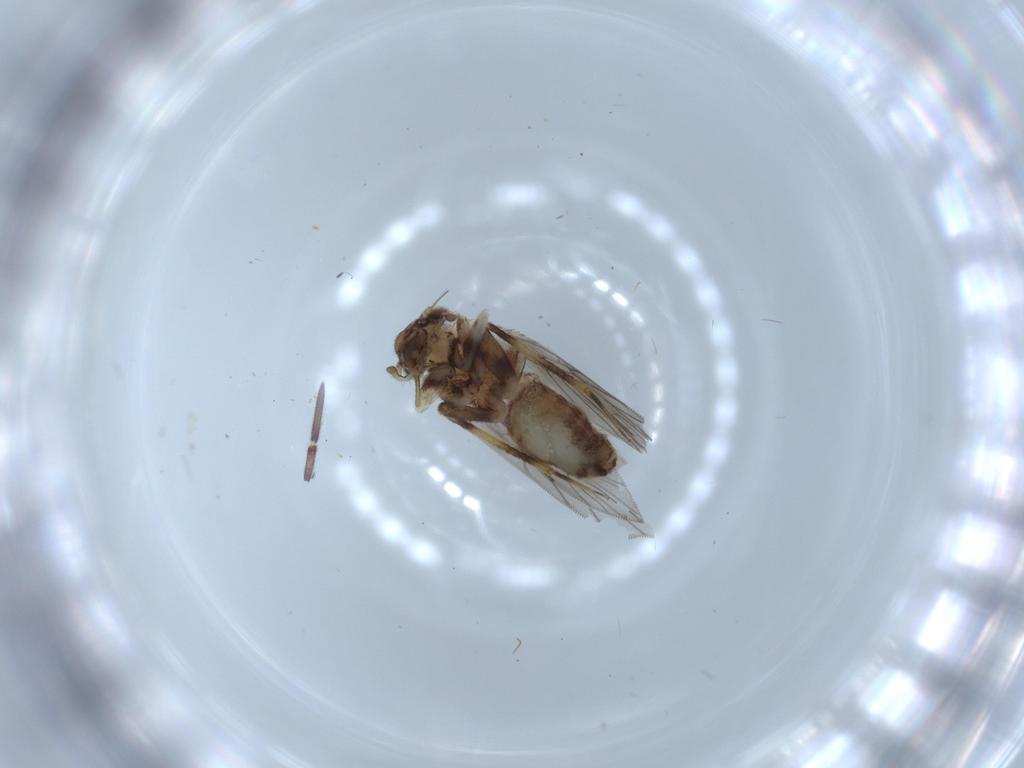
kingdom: Animalia
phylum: Arthropoda
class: Insecta
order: Psocodea
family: Lepidopsocidae
